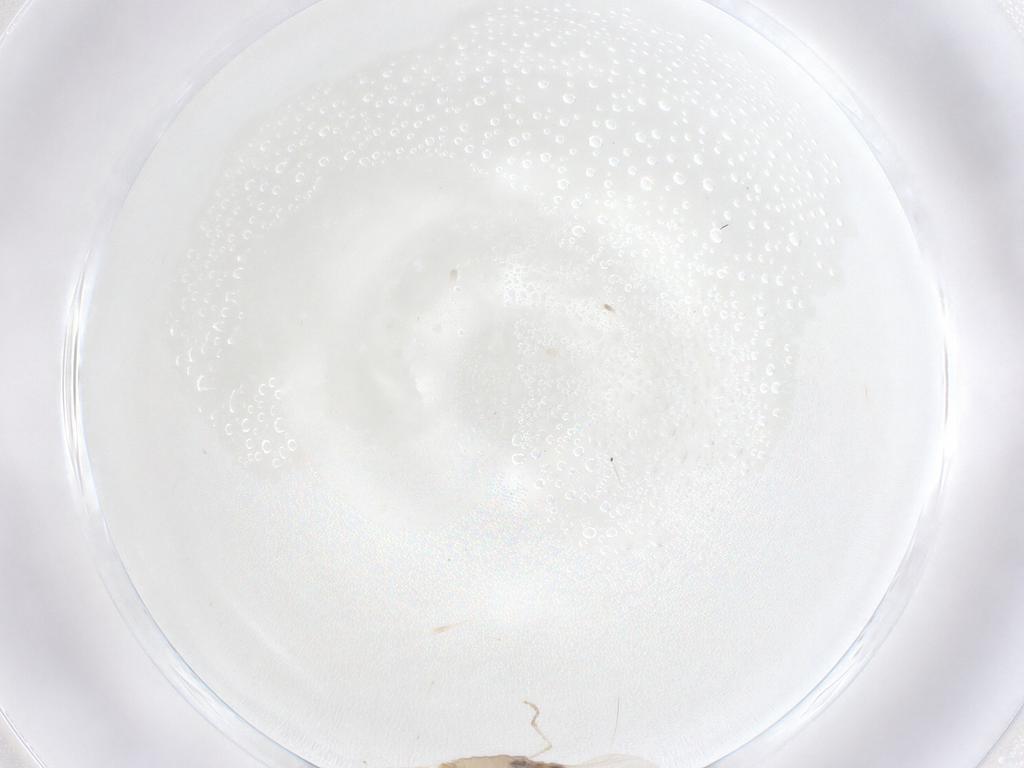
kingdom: Animalia
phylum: Arthropoda
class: Insecta
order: Diptera
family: Cecidomyiidae
